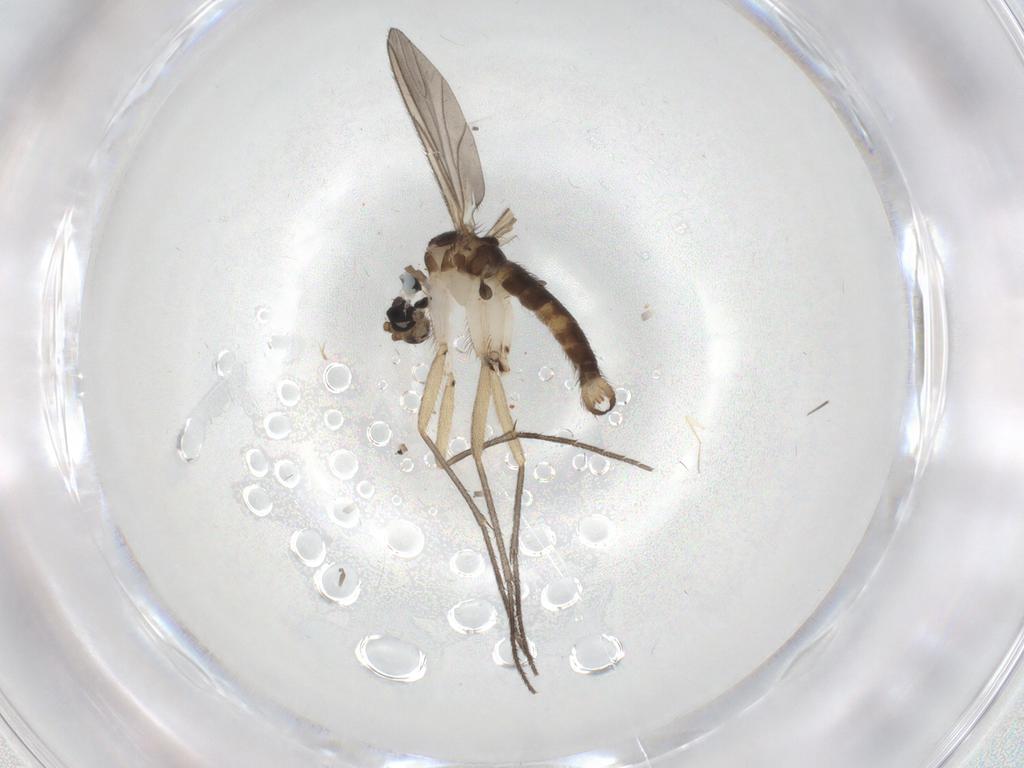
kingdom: Animalia
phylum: Arthropoda
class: Insecta
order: Diptera
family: Sciaridae
